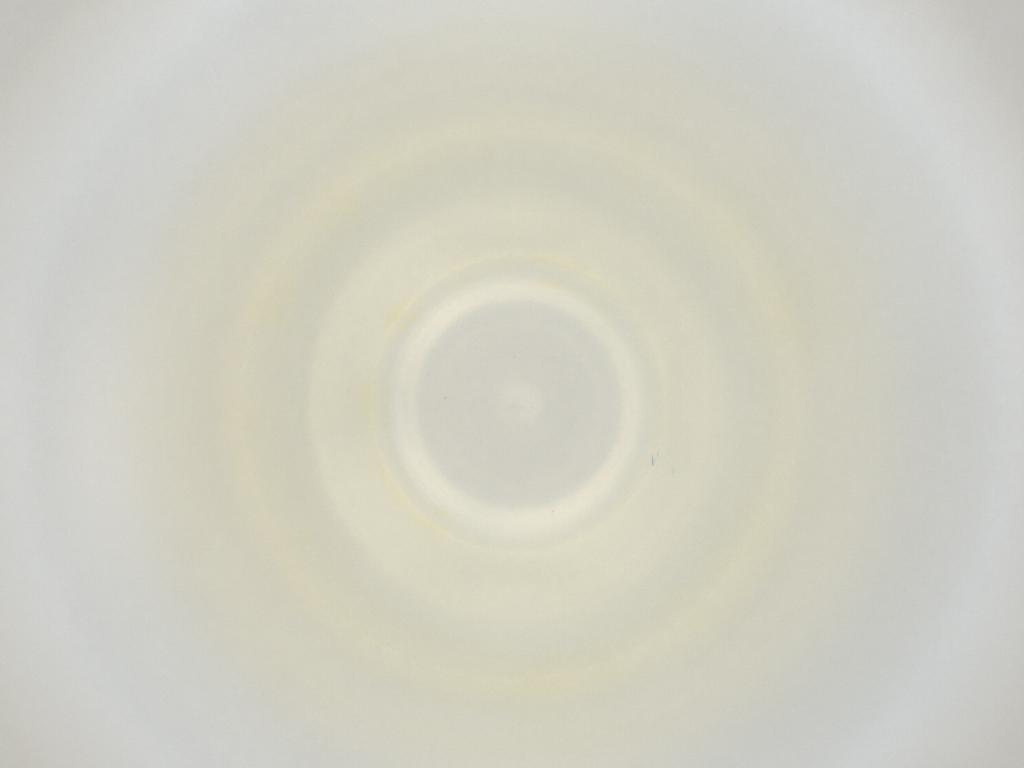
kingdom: Animalia
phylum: Arthropoda
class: Insecta
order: Diptera
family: Cecidomyiidae
